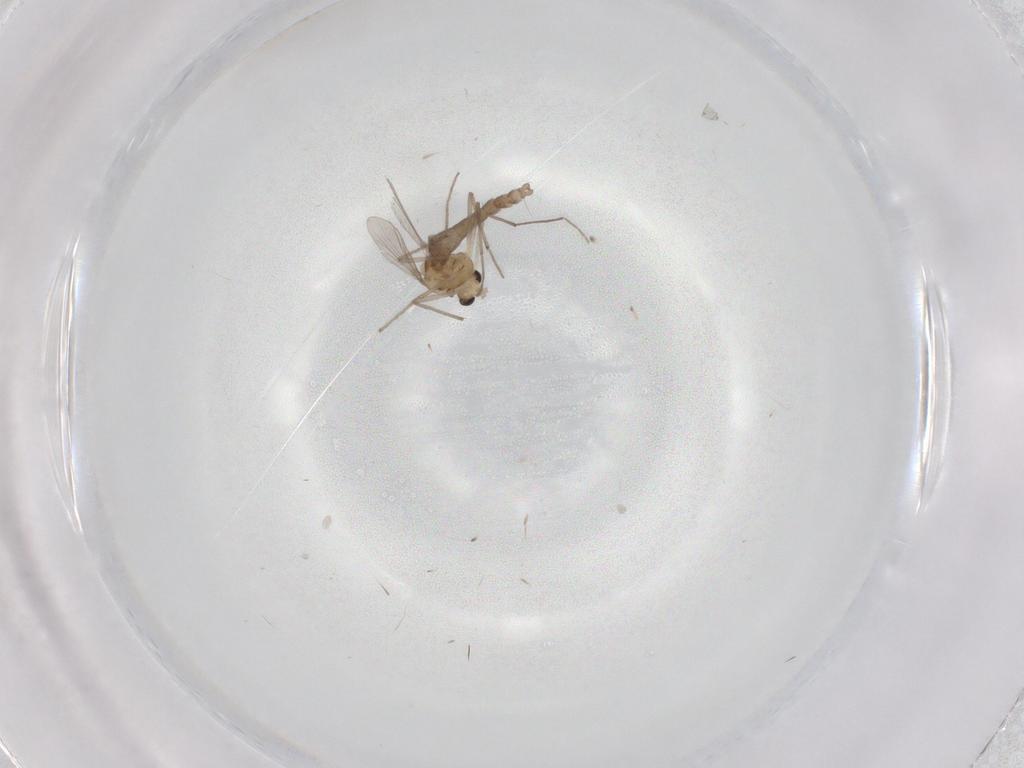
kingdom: Animalia
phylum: Arthropoda
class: Insecta
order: Diptera
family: Chironomidae
